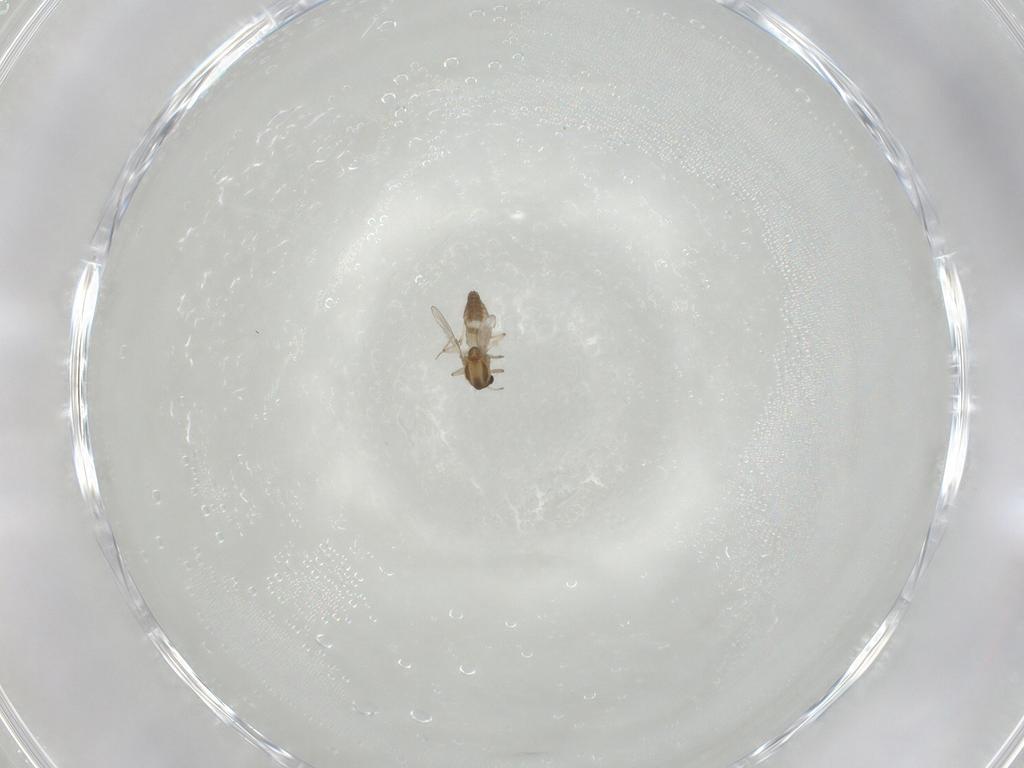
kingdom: Animalia
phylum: Arthropoda
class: Insecta
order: Diptera
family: Chironomidae
